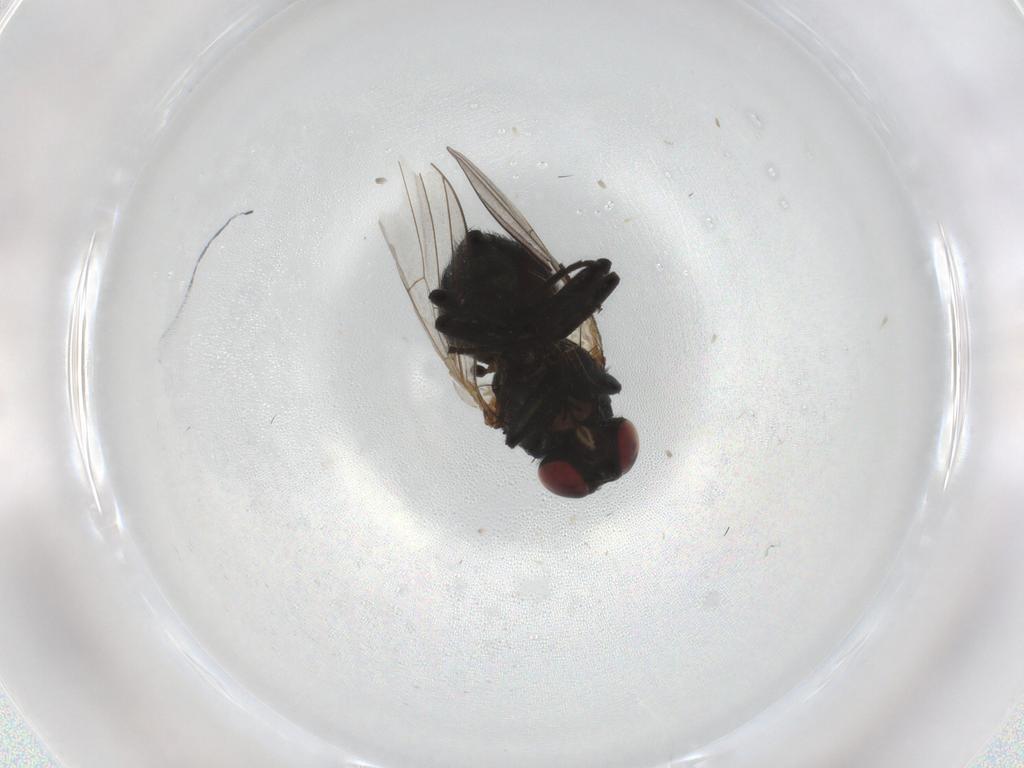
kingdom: Animalia
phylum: Arthropoda
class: Insecta
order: Diptera
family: Agromyzidae
